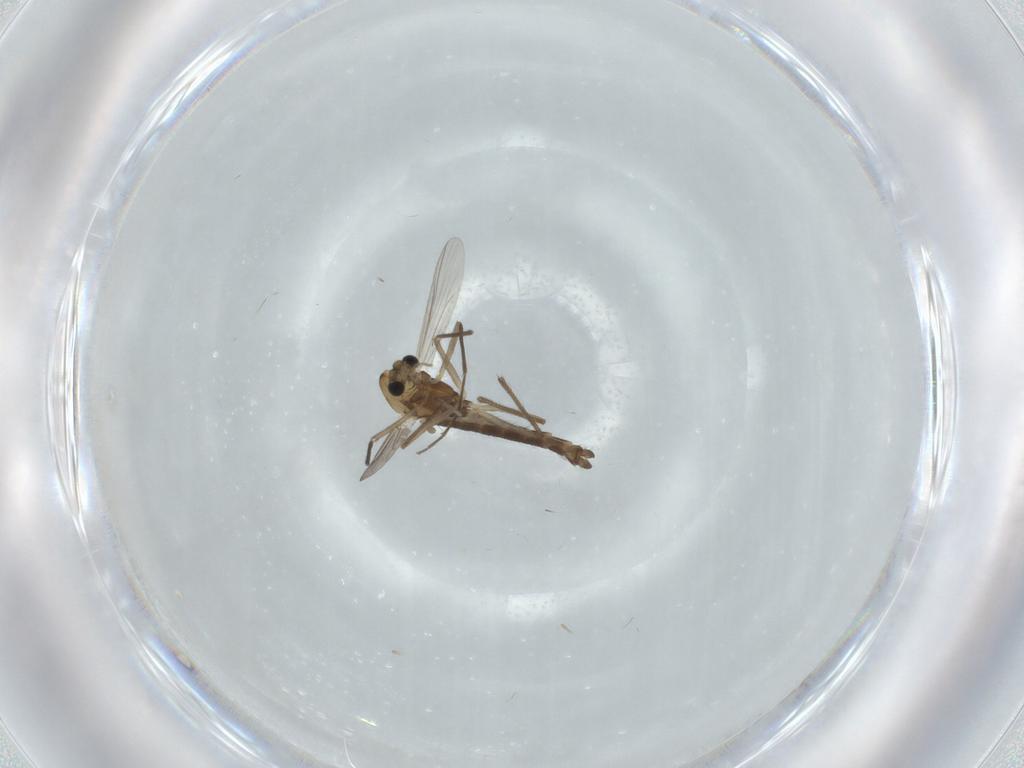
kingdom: Animalia
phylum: Arthropoda
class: Insecta
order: Diptera
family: Chironomidae
